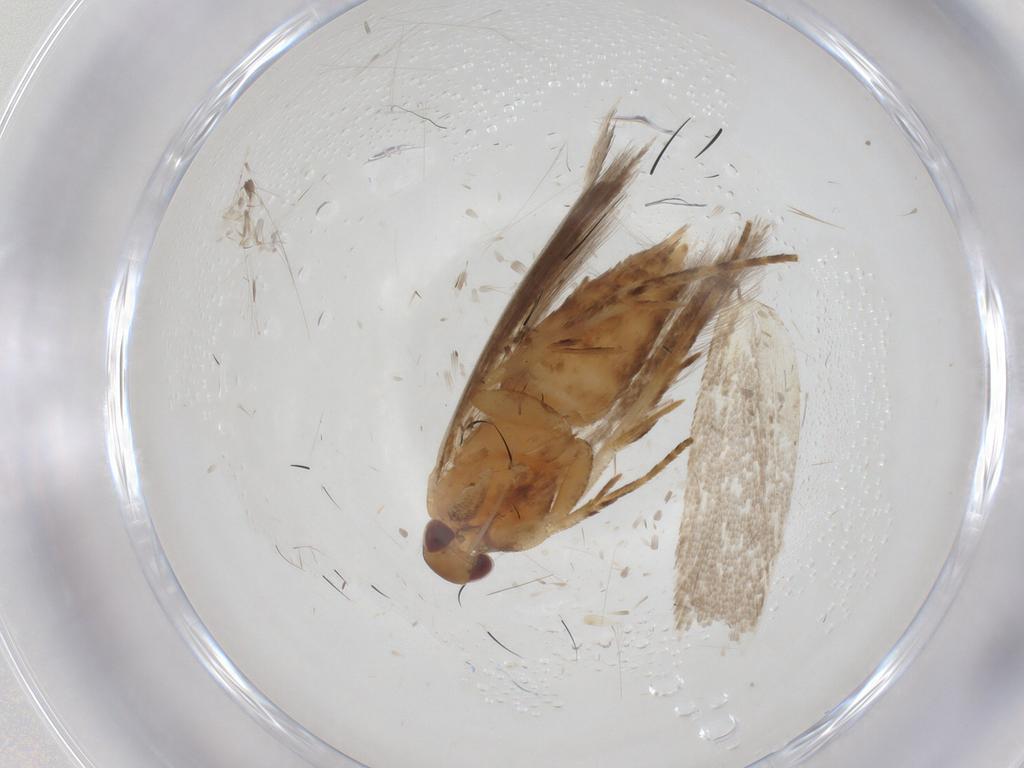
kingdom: Animalia
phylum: Arthropoda
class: Insecta
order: Lepidoptera
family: Gelechiidae
